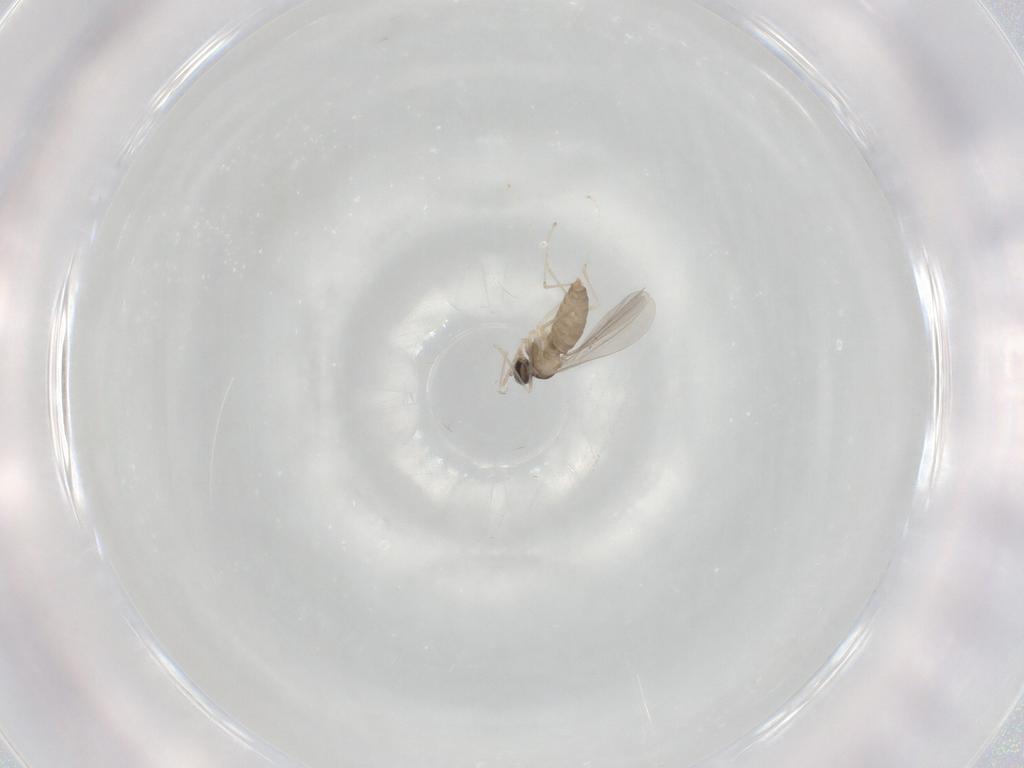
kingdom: Animalia
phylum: Arthropoda
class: Insecta
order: Diptera
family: Cecidomyiidae
